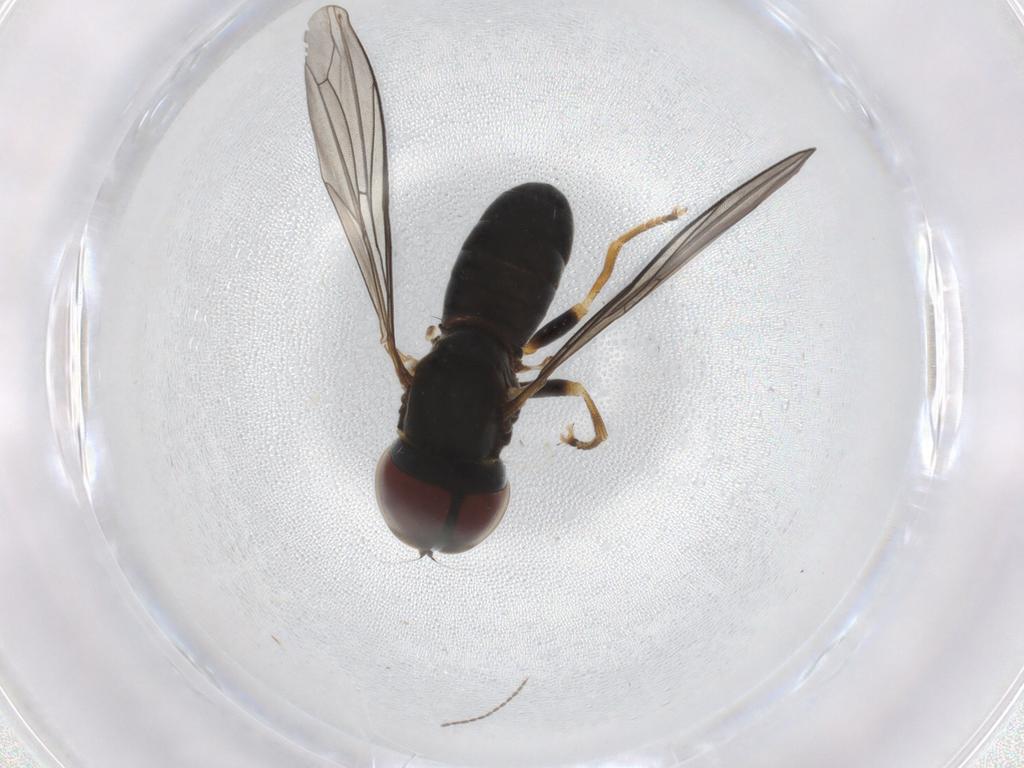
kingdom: Animalia
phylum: Arthropoda
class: Insecta
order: Diptera
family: Pipunculidae
